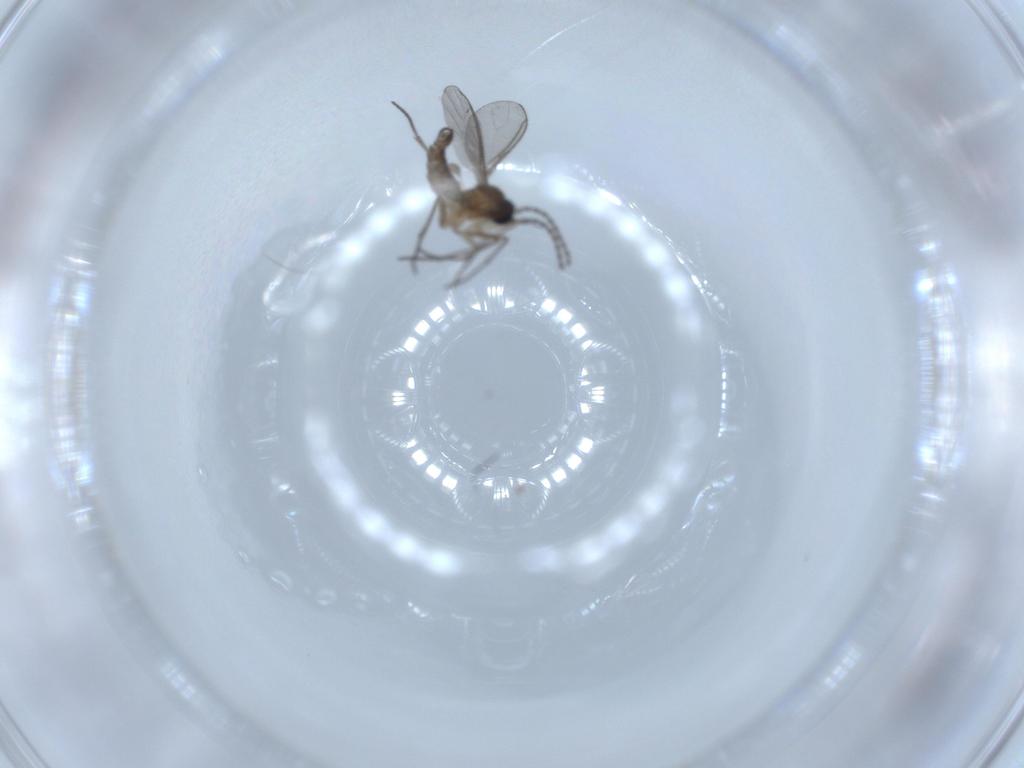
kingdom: Animalia
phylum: Arthropoda
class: Insecta
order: Diptera
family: Sciaridae
